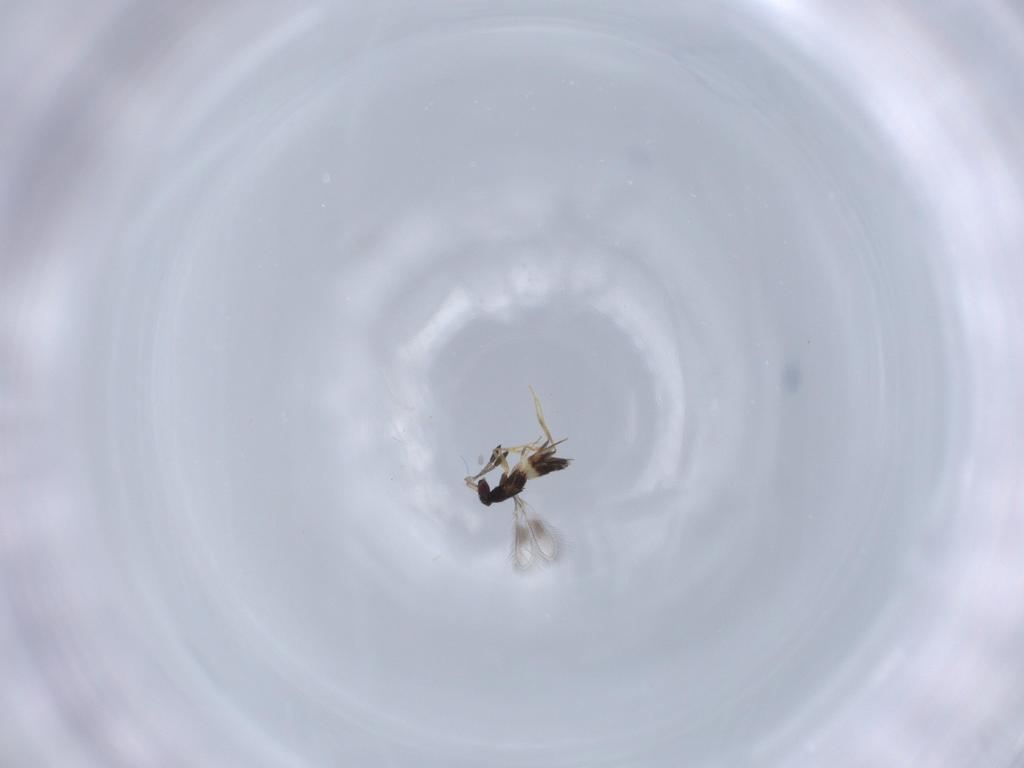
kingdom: Animalia
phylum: Arthropoda
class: Insecta
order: Hymenoptera
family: Mymaridae
